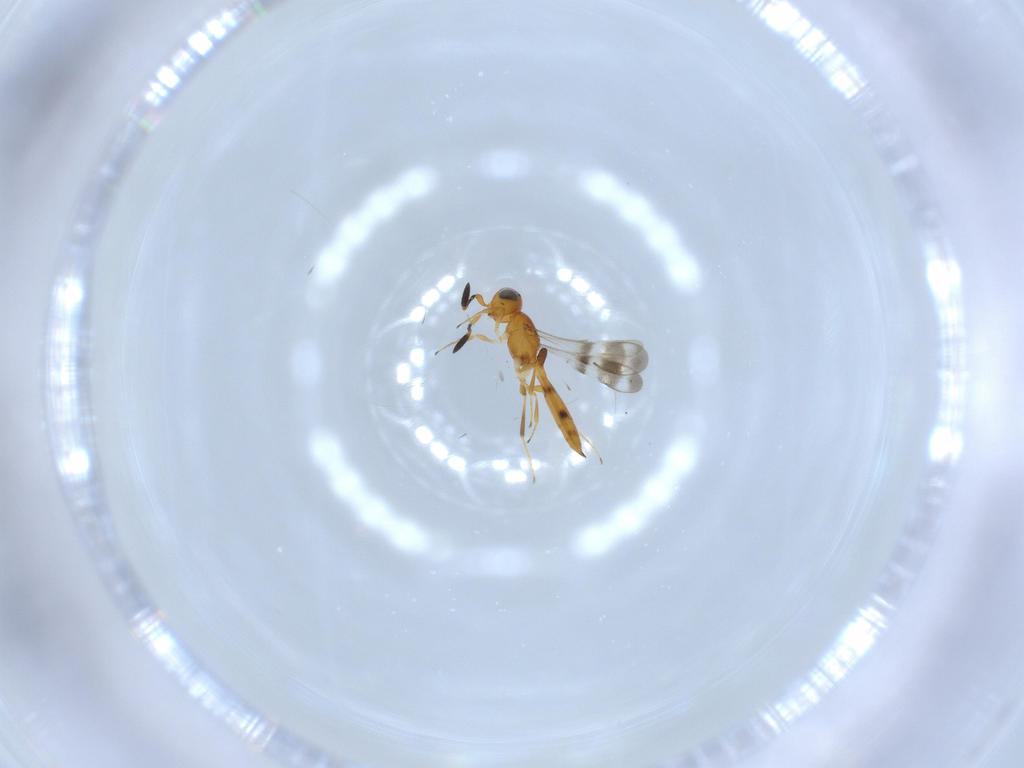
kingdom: Animalia
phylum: Arthropoda
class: Insecta
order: Hymenoptera
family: Scelionidae
